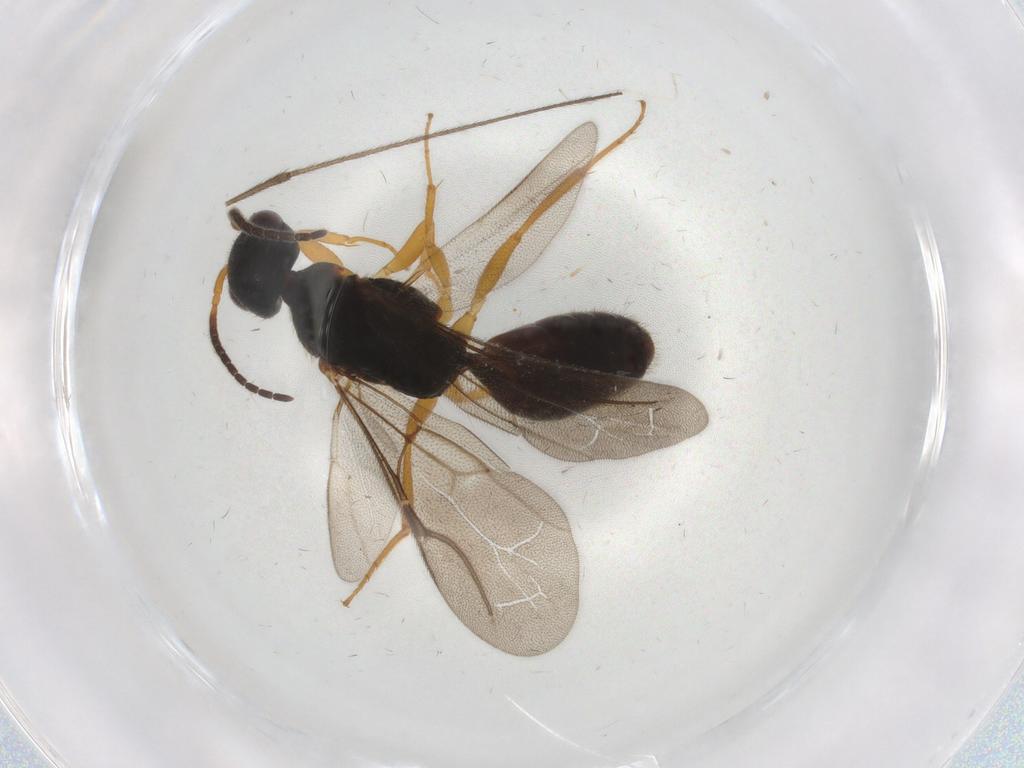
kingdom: Animalia
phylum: Arthropoda
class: Insecta
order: Hymenoptera
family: Bethylidae
